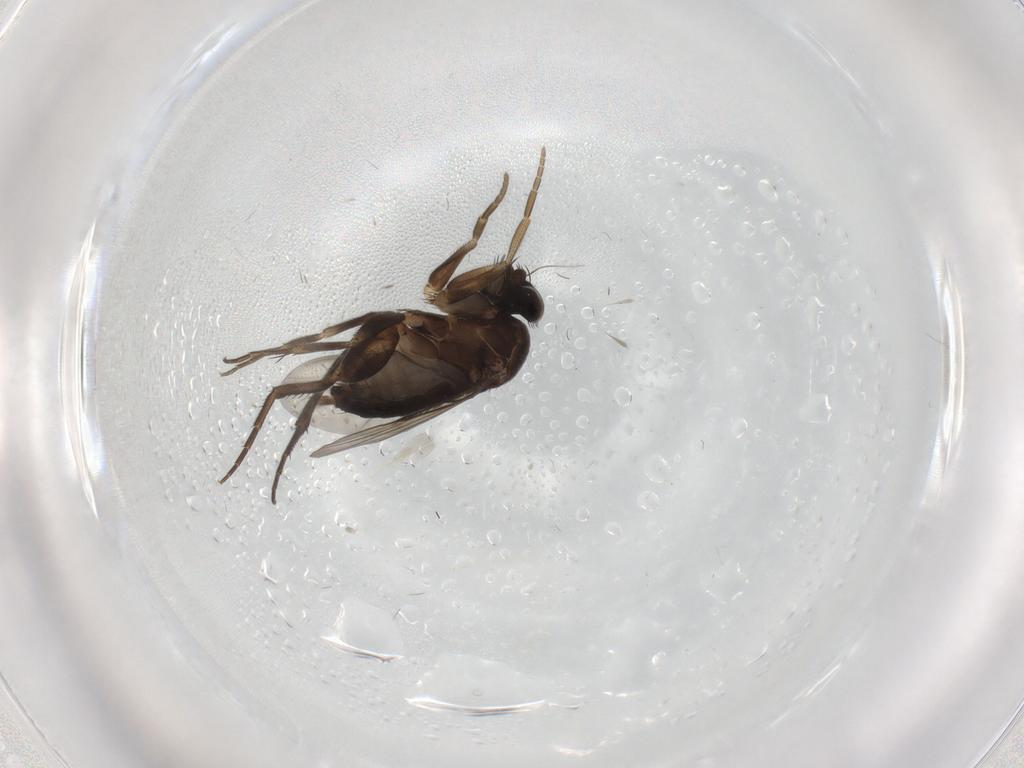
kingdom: Animalia
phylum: Arthropoda
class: Insecta
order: Diptera
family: Phoridae
